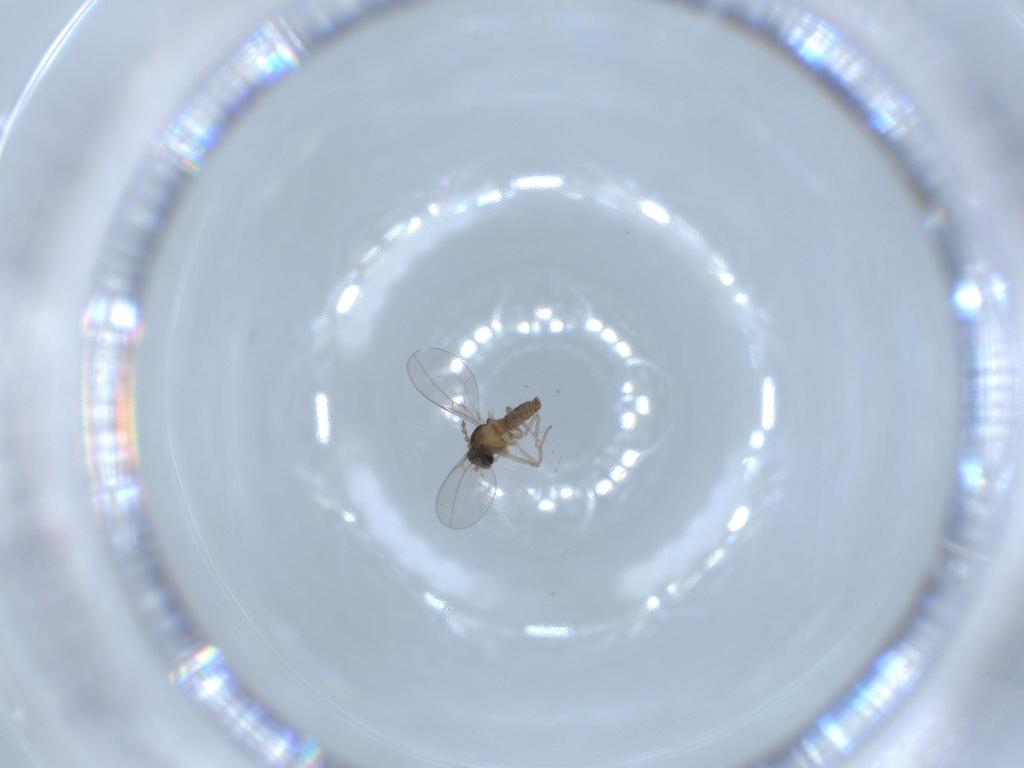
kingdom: Animalia
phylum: Arthropoda
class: Insecta
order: Diptera
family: Cecidomyiidae
